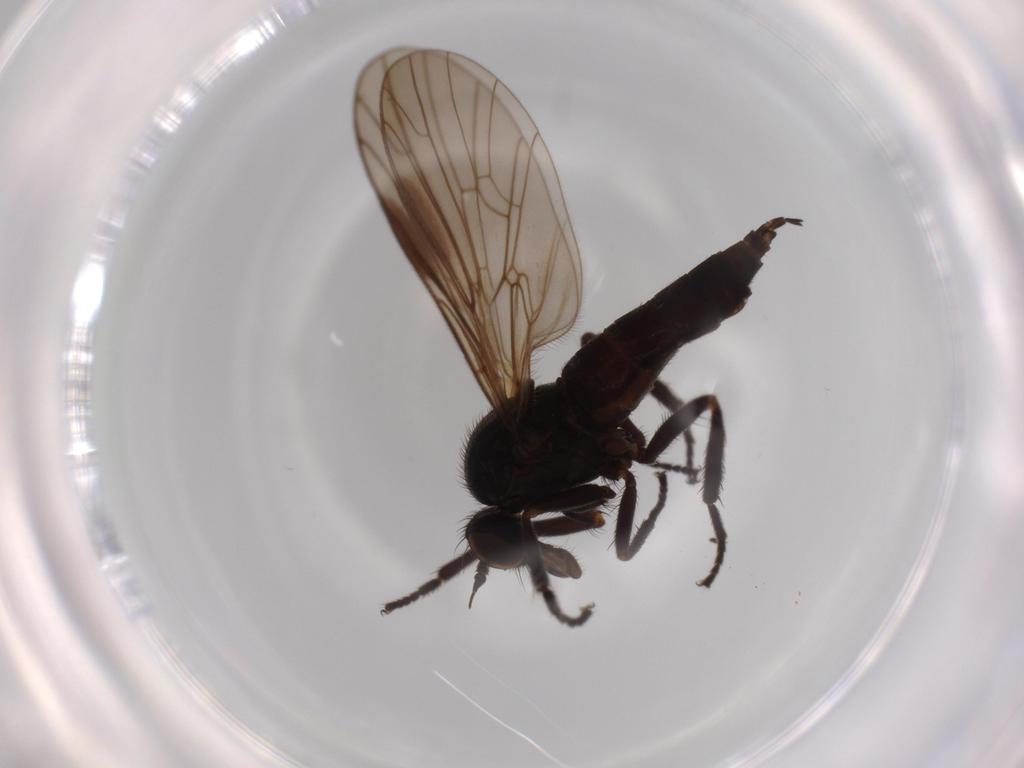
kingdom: Animalia
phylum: Arthropoda
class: Insecta
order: Diptera
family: Empididae
